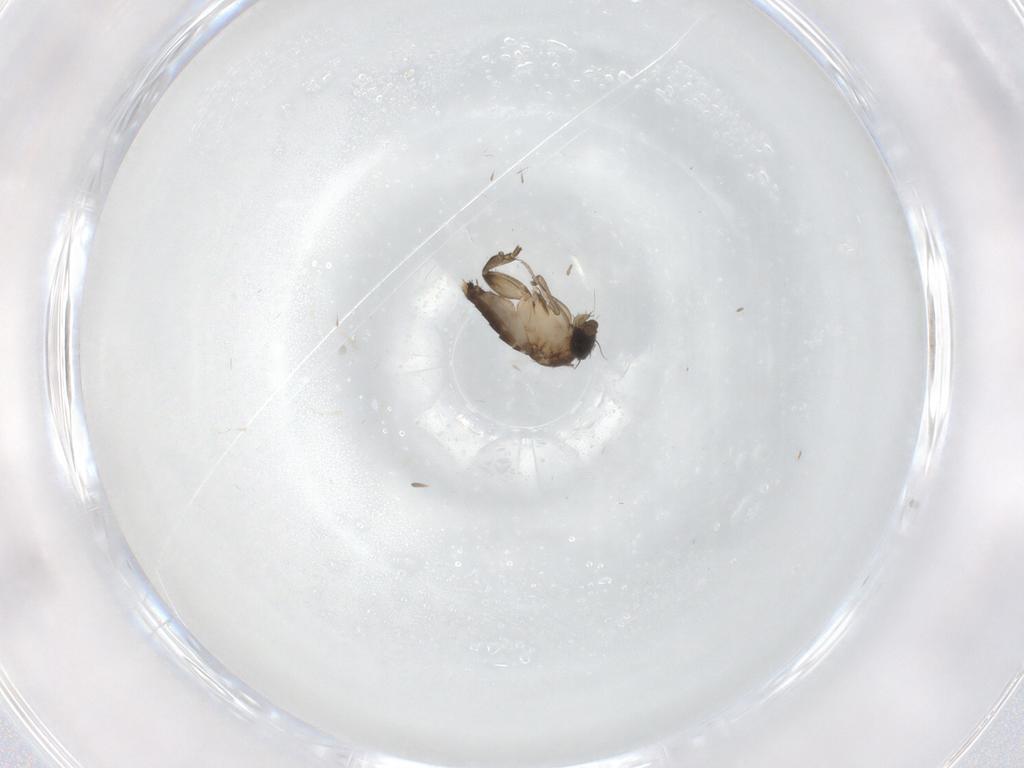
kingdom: Animalia
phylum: Arthropoda
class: Insecta
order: Diptera
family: Phoridae
